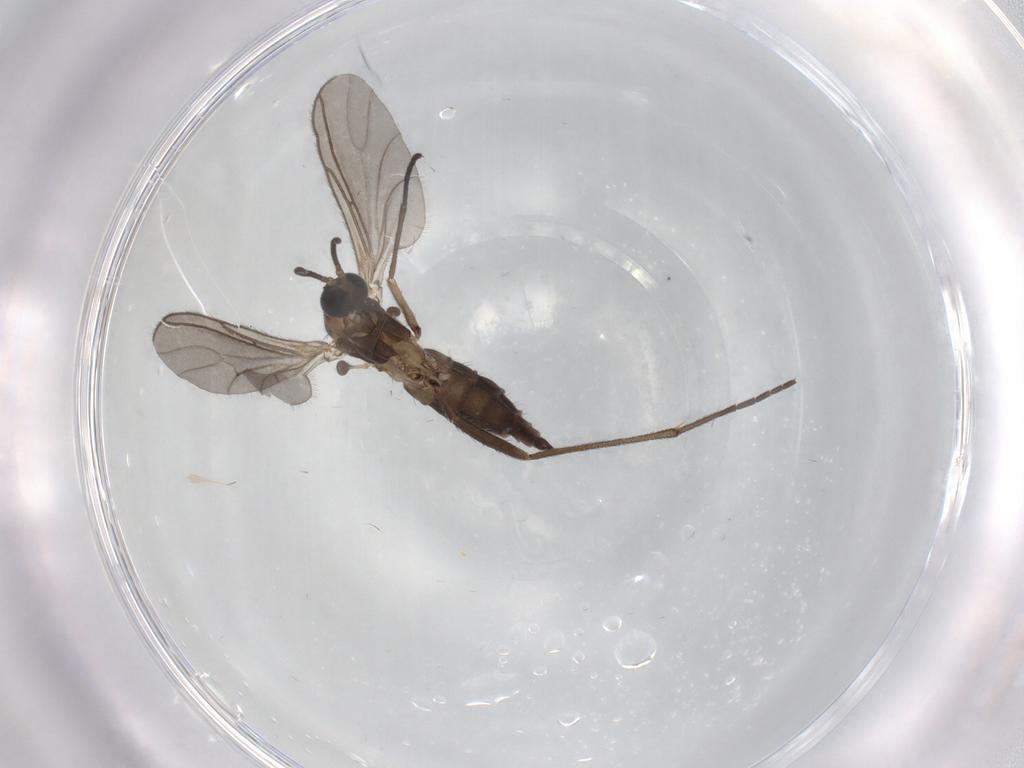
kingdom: Animalia
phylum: Arthropoda
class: Insecta
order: Diptera
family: Sciaridae
